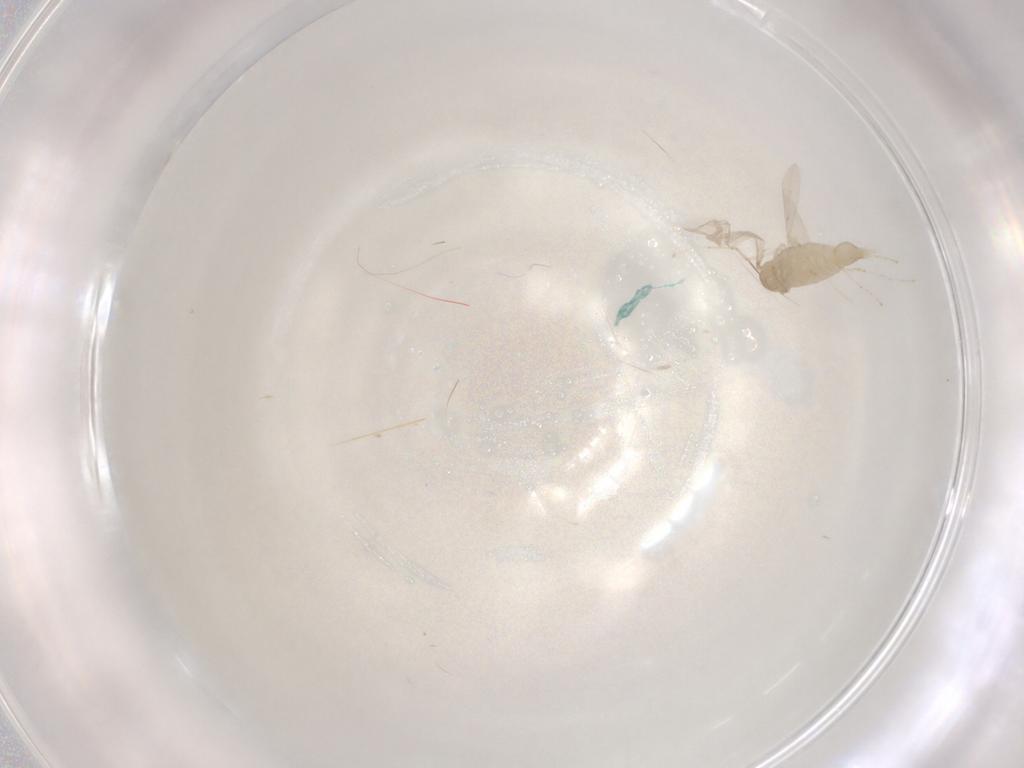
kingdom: Animalia
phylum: Arthropoda
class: Insecta
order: Diptera
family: Cecidomyiidae
